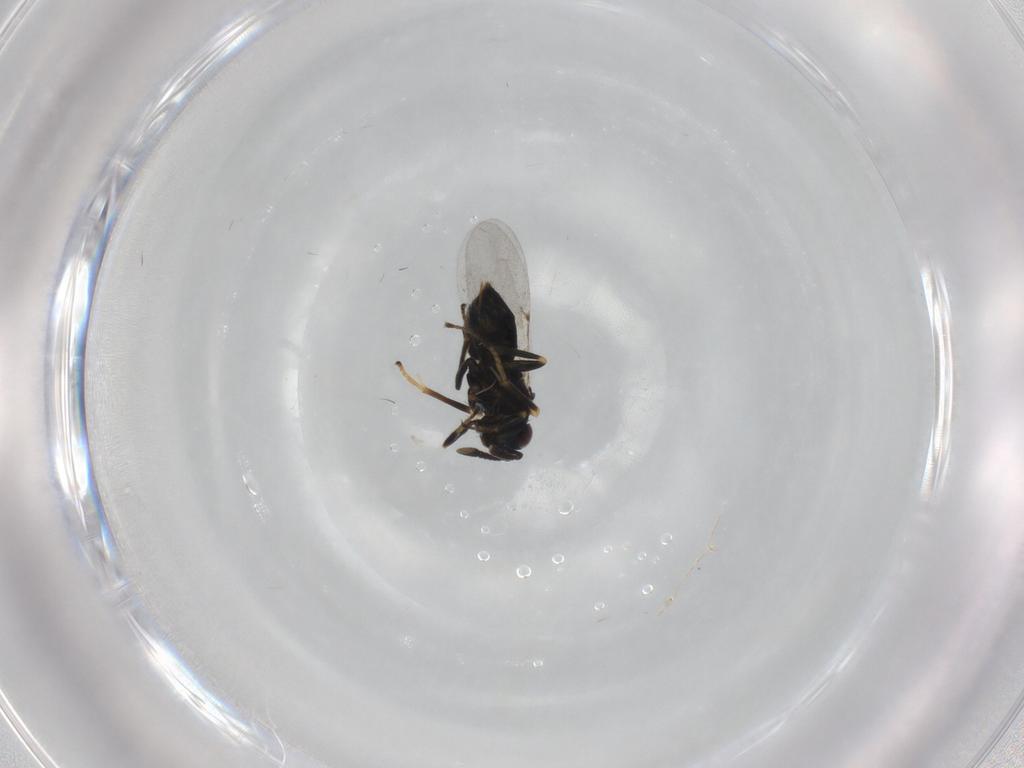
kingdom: Animalia
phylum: Arthropoda
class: Insecta
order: Hymenoptera
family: Encyrtidae
